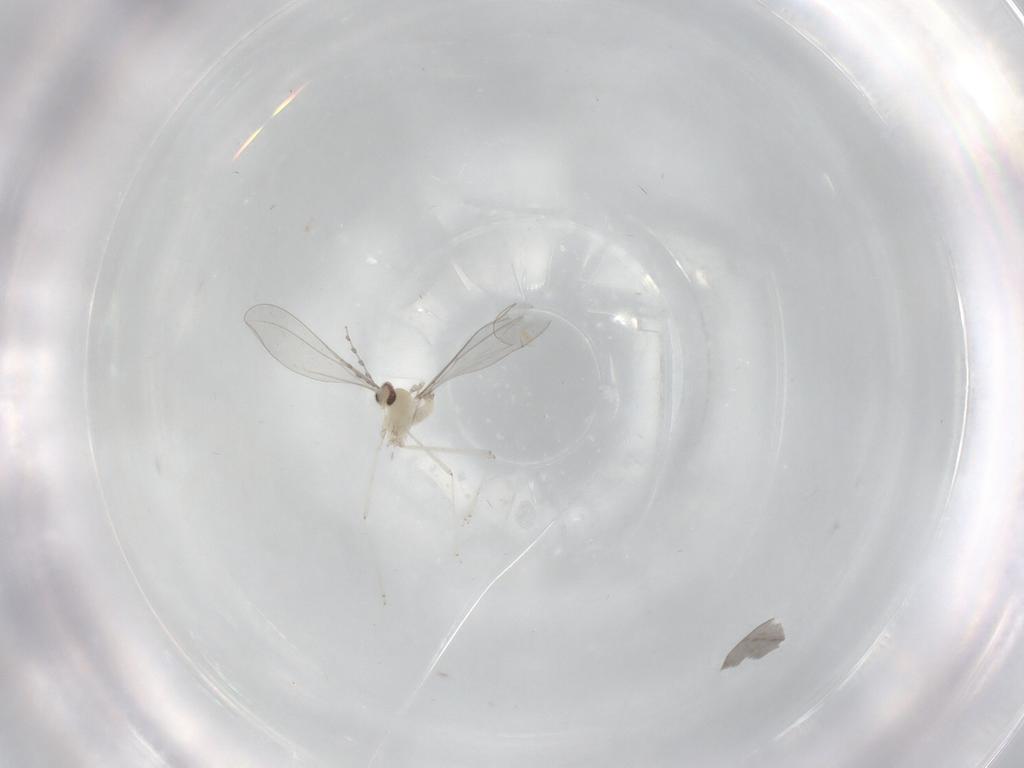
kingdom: Animalia
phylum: Arthropoda
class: Insecta
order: Diptera
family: Cecidomyiidae
